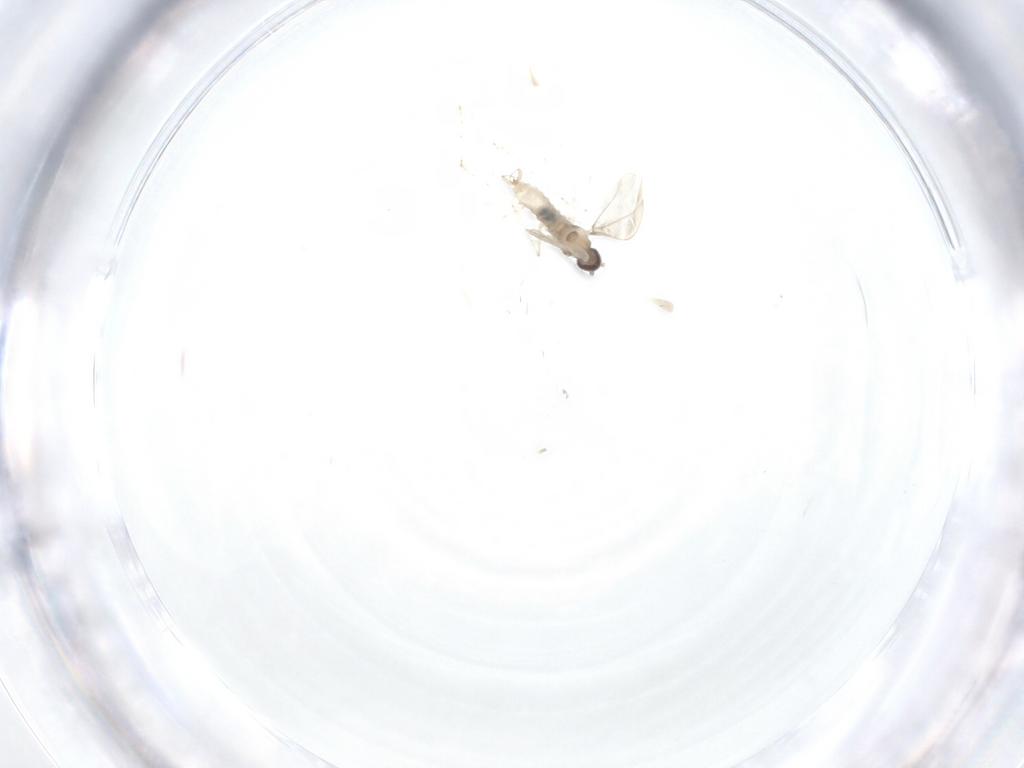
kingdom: Animalia
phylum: Arthropoda
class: Insecta
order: Diptera
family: Cecidomyiidae
